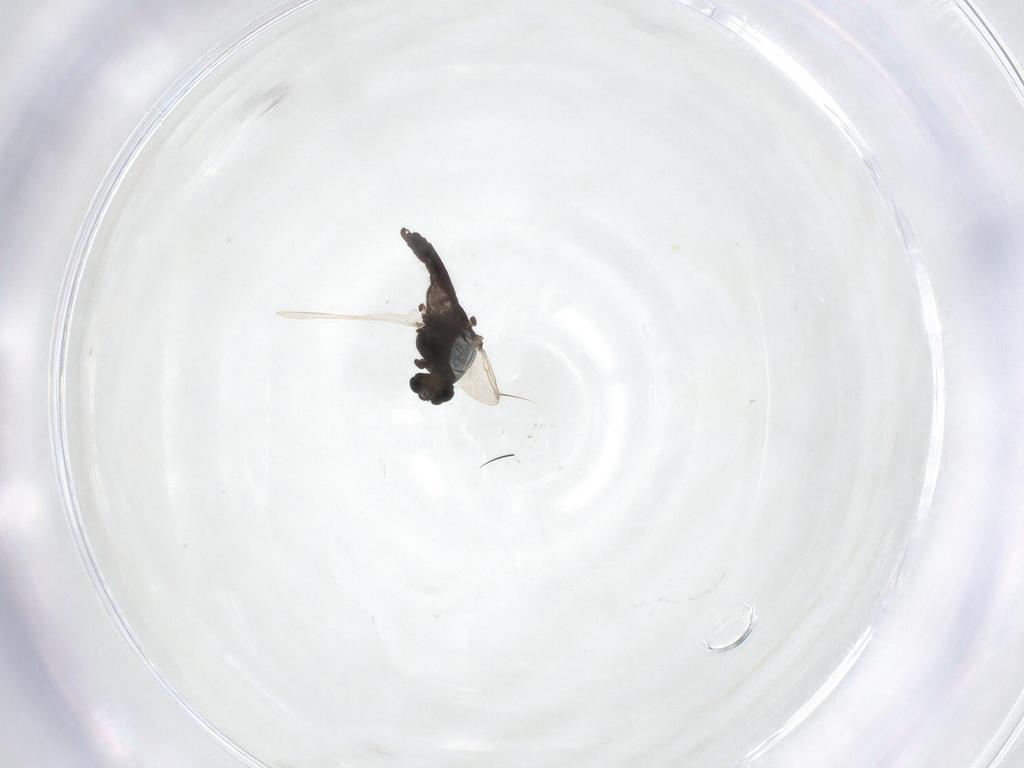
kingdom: Animalia
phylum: Arthropoda
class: Insecta
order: Diptera
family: Chironomidae
